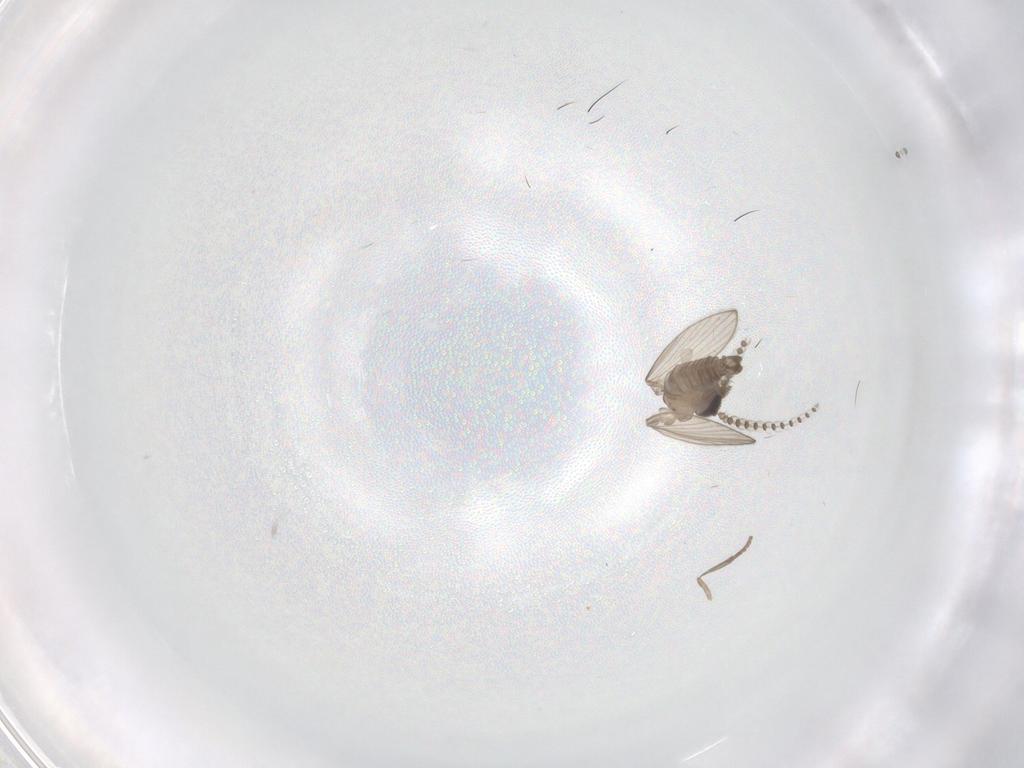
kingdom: Animalia
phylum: Arthropoda
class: Insecta
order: Diptera
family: Psychodidae
